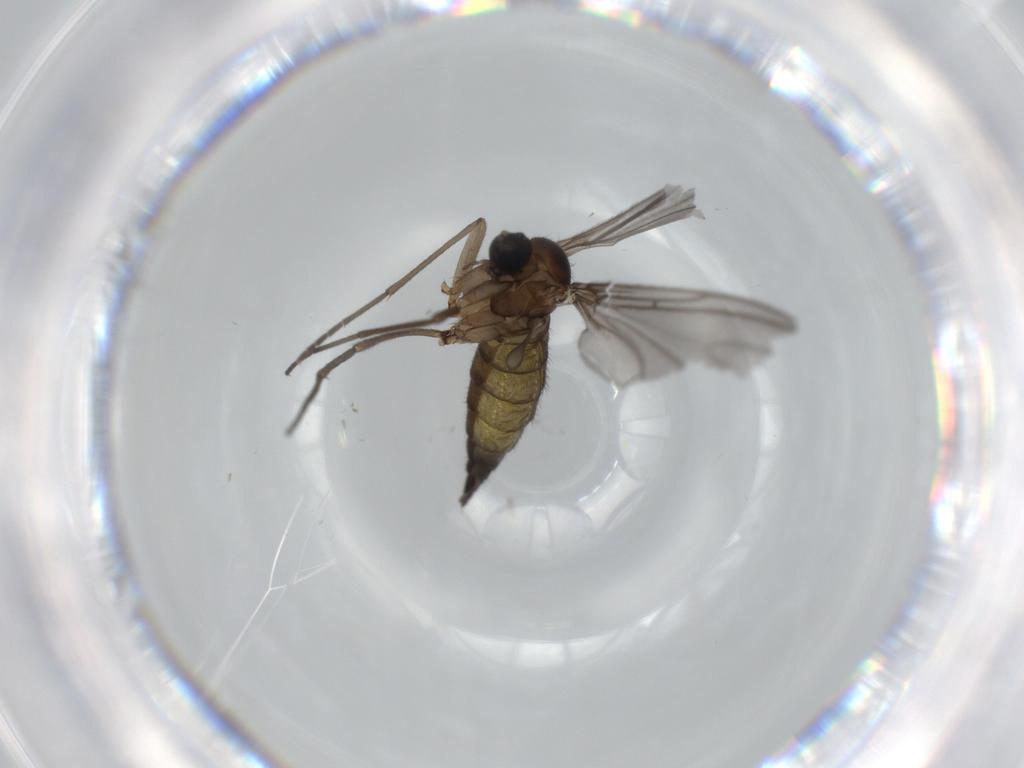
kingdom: Animalia
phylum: Arthropoda
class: Insecta
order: Diptera
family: Sciaridae
